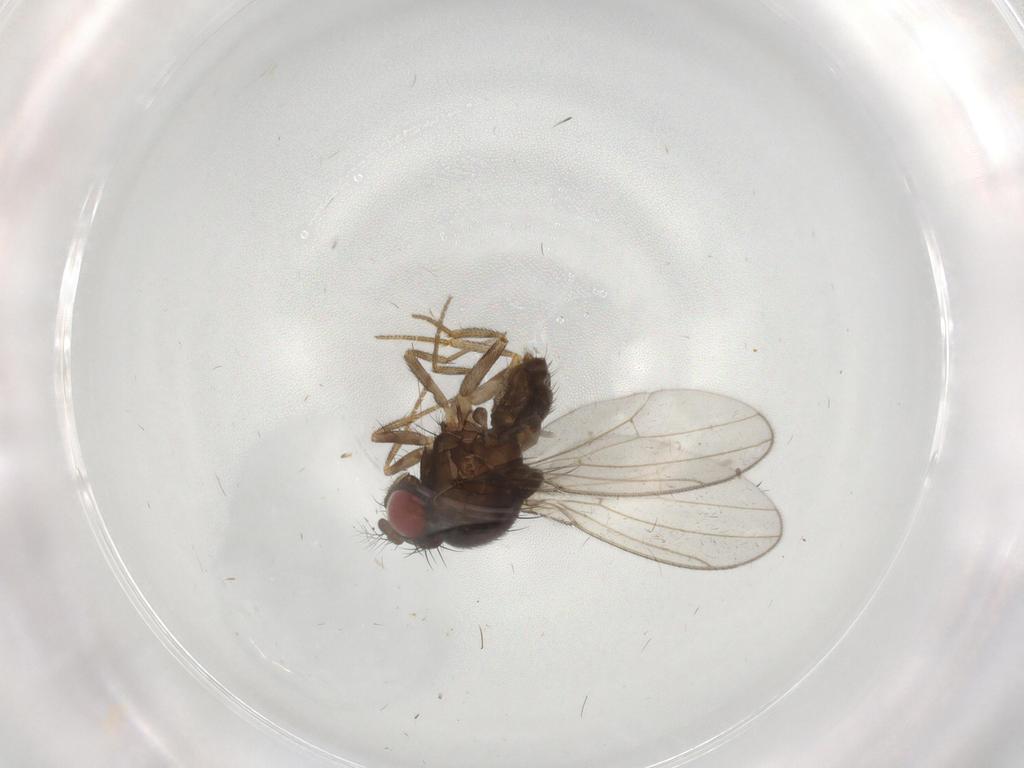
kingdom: Animalia
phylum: Arthropoda
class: Insecta
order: Diptera
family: Drosophilidae
